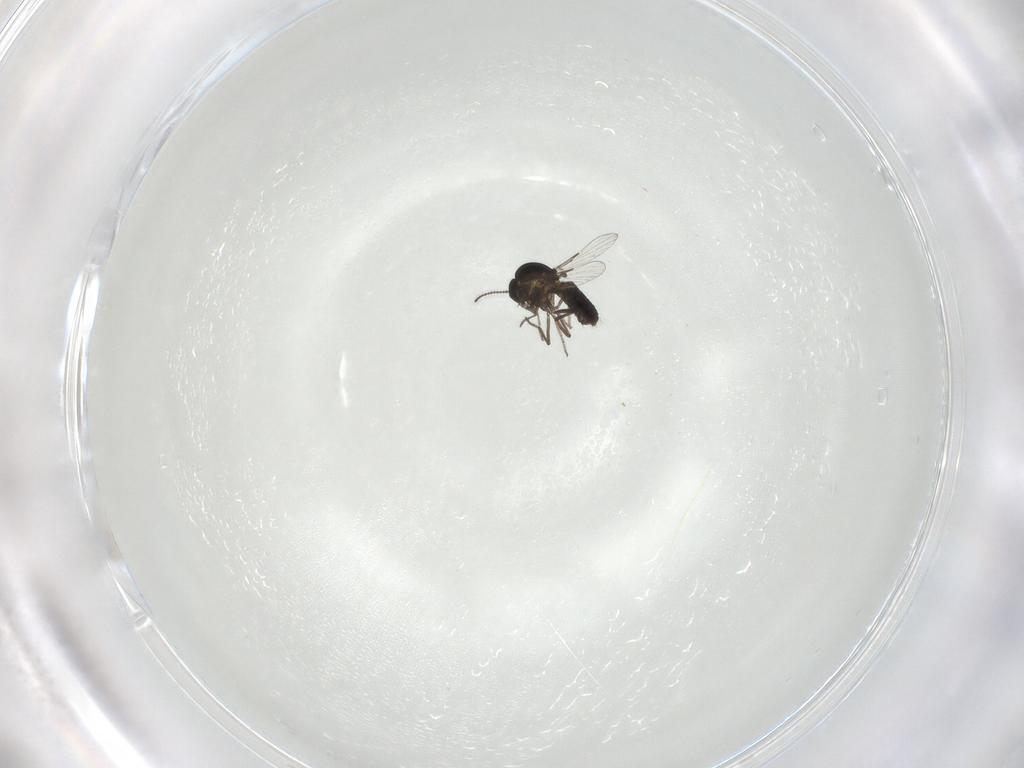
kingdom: Animalia
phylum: Arthropoda
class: Insecta
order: Diptera
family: Ceratopogonidae
